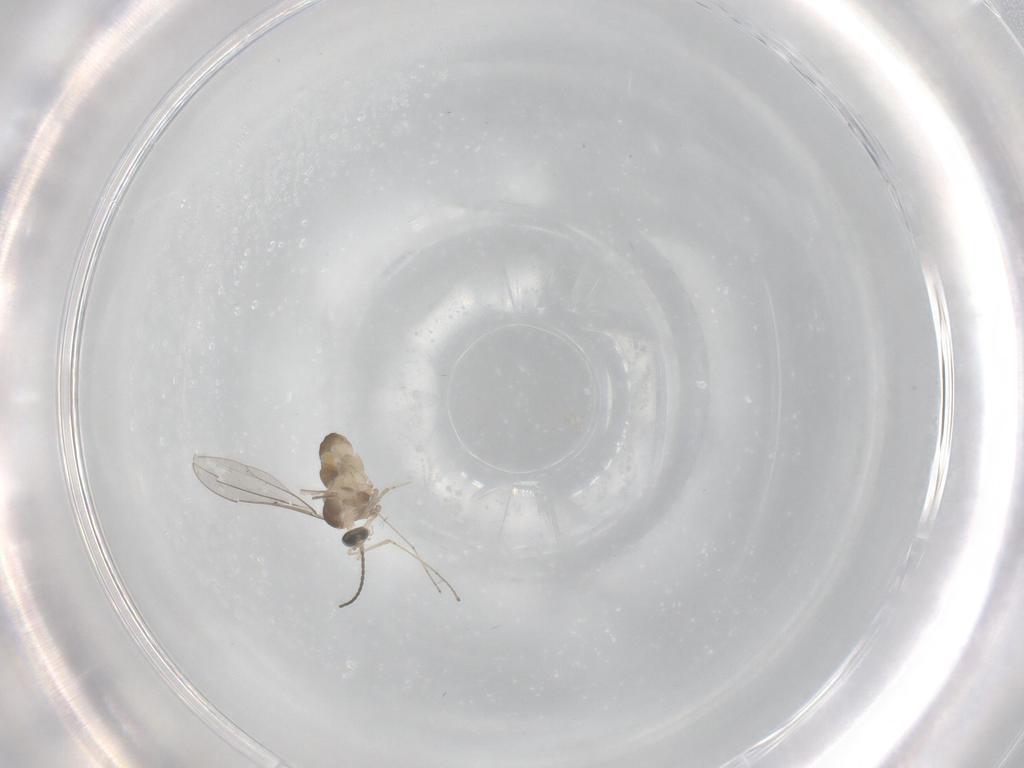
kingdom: Animalia
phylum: Arthropoda
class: Insecta
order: Diptera
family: Cecidomyiidae
